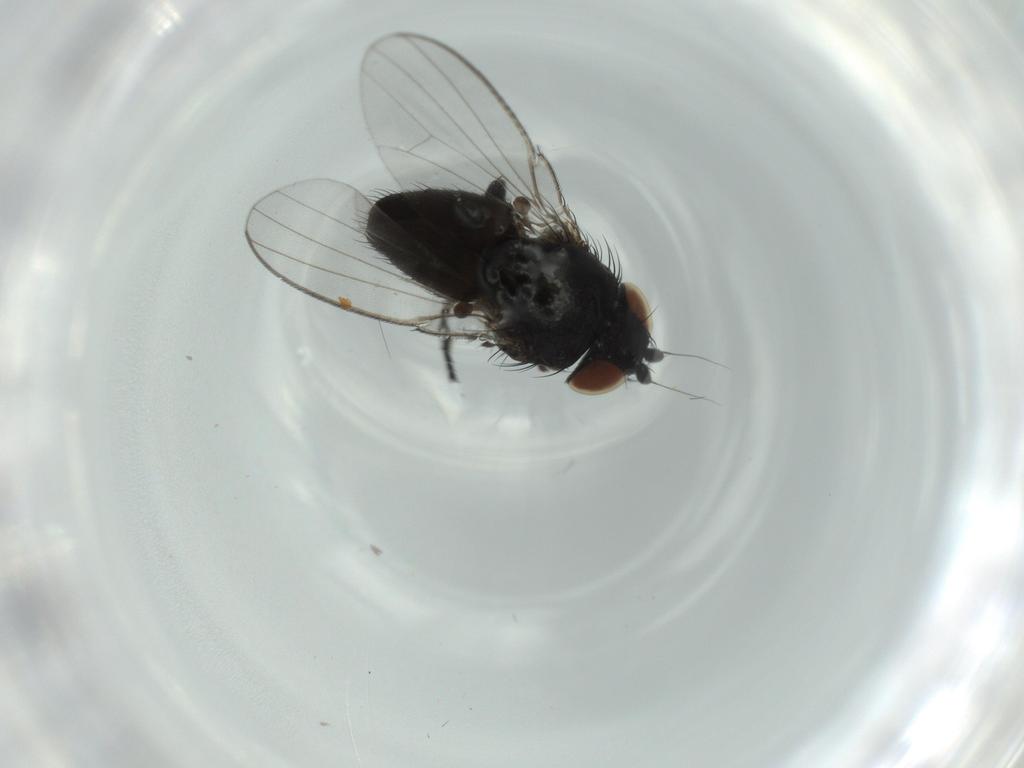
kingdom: Animalia
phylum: Arthropoda
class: Insecta
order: Diptera
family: Milichiidae
